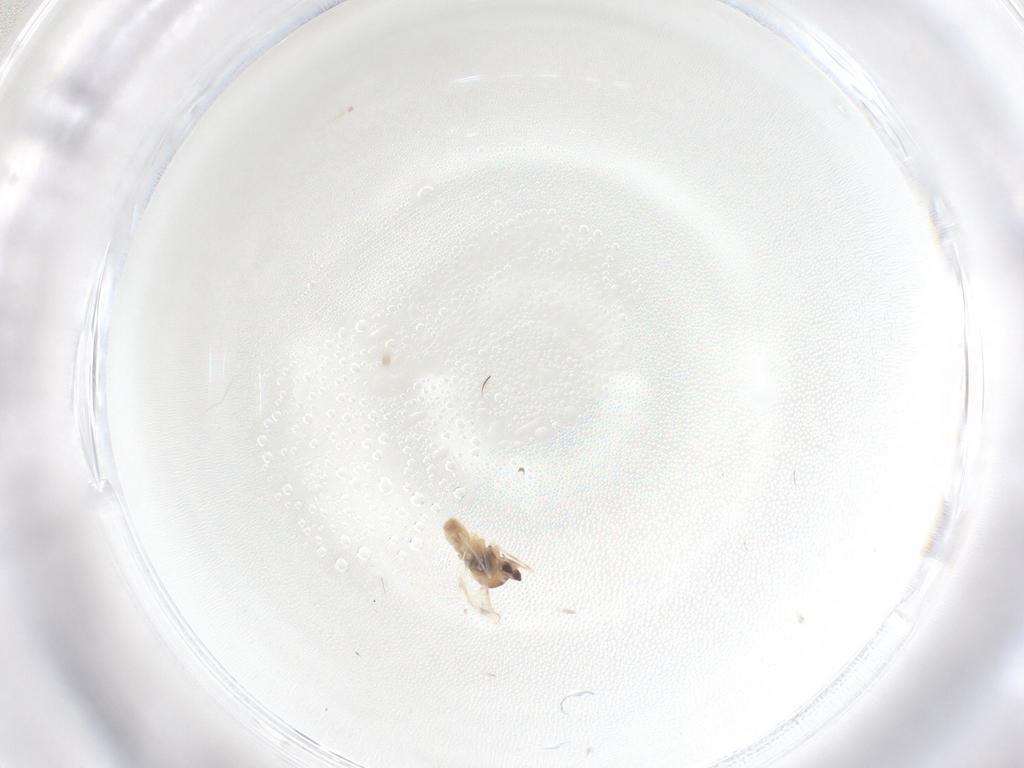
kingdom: Animalia
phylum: Arthropoda
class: Insecta
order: Diptera
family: Cecidomyiidae
